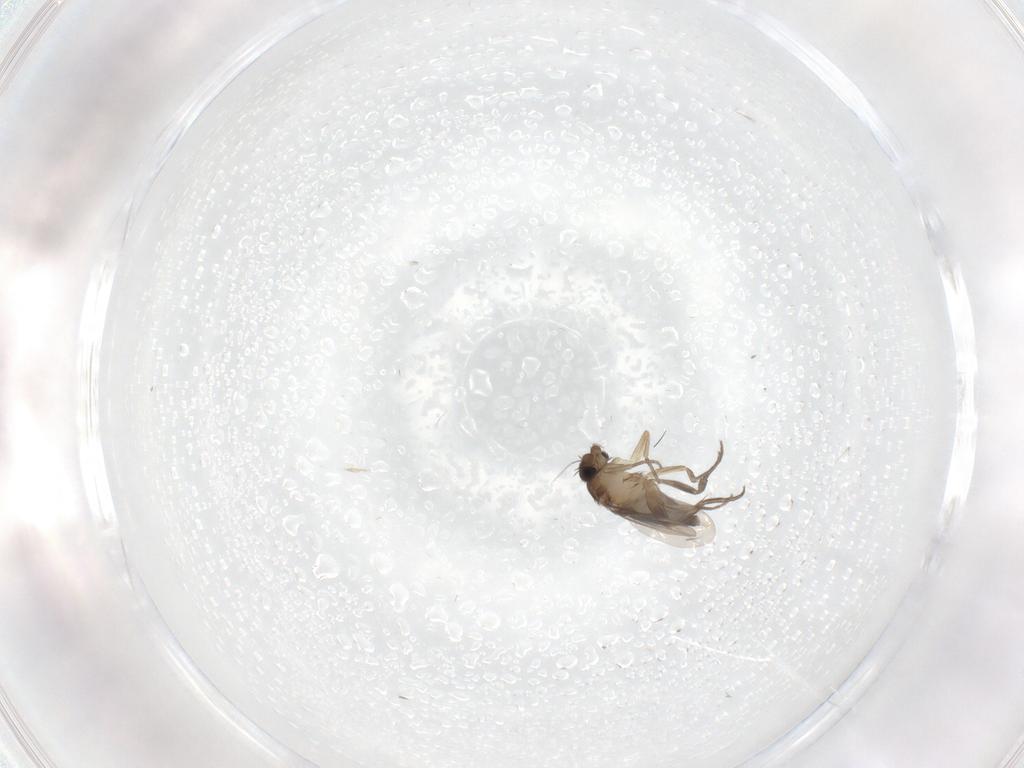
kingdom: Animalia
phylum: Arthropoda
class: Insecta
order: Diptera
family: Phoridae
